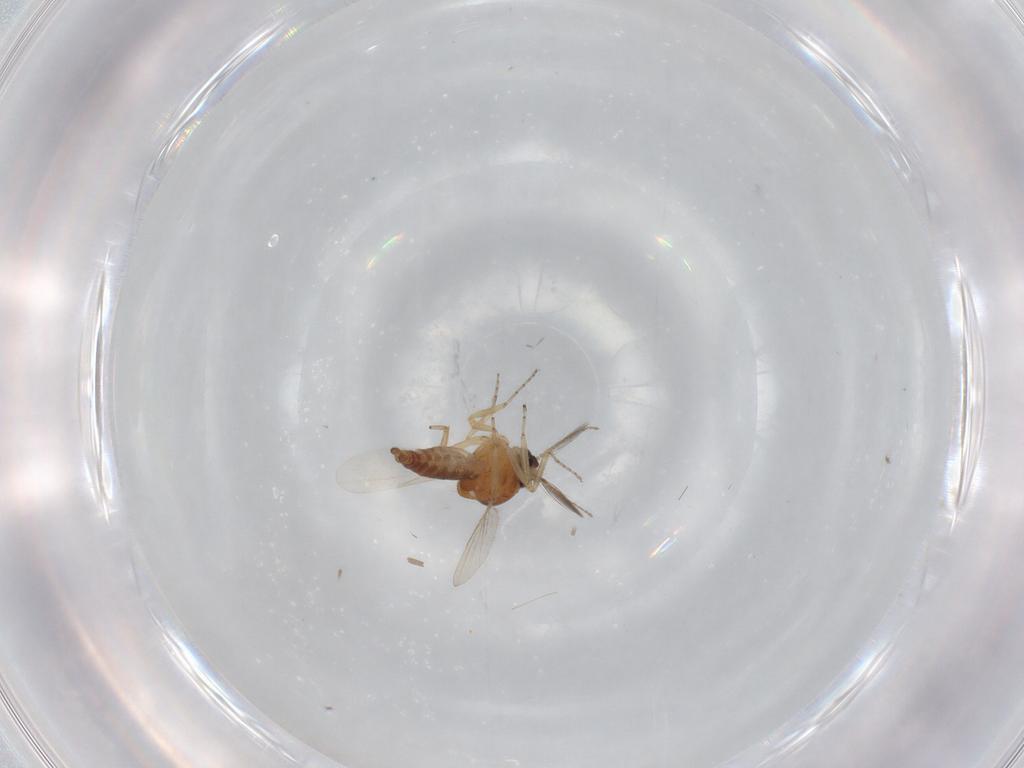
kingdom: Animalia
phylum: Arthropoda
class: Insecta
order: Diptera
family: Ceratopogonidae
